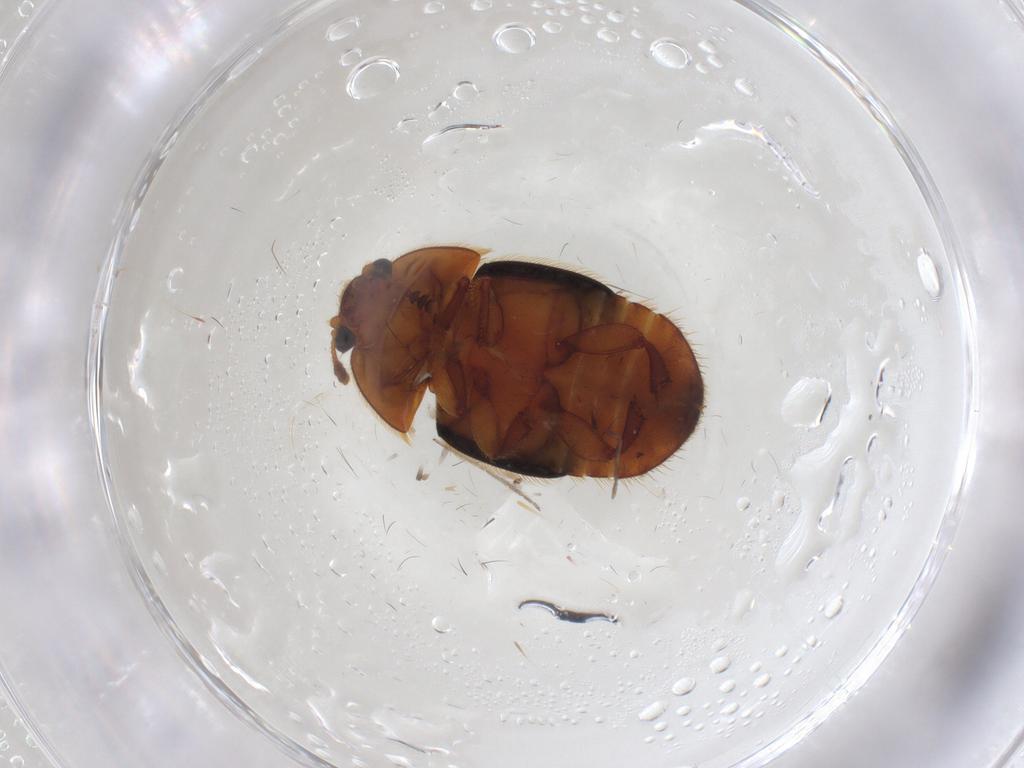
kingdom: Animalia
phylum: Arthropoda
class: Insecta
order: Coleoptera
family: Nitidulidae
